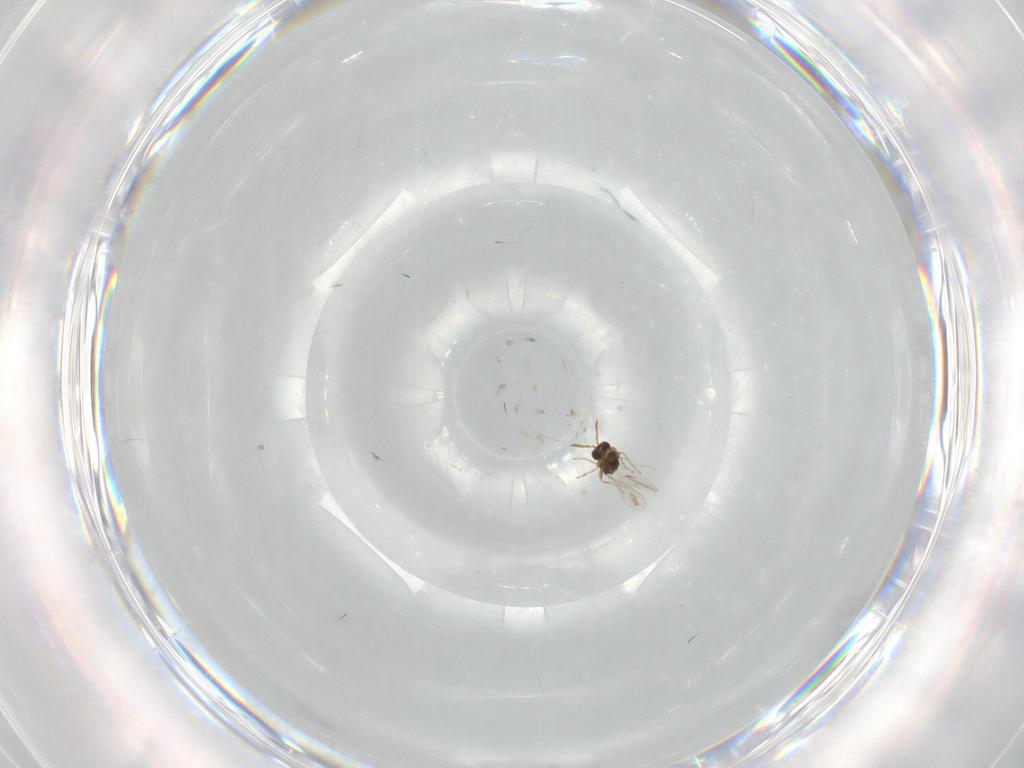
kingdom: Animalia
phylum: Arthropoda
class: Insecta
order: Hymenoptera
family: Encyrtidae
